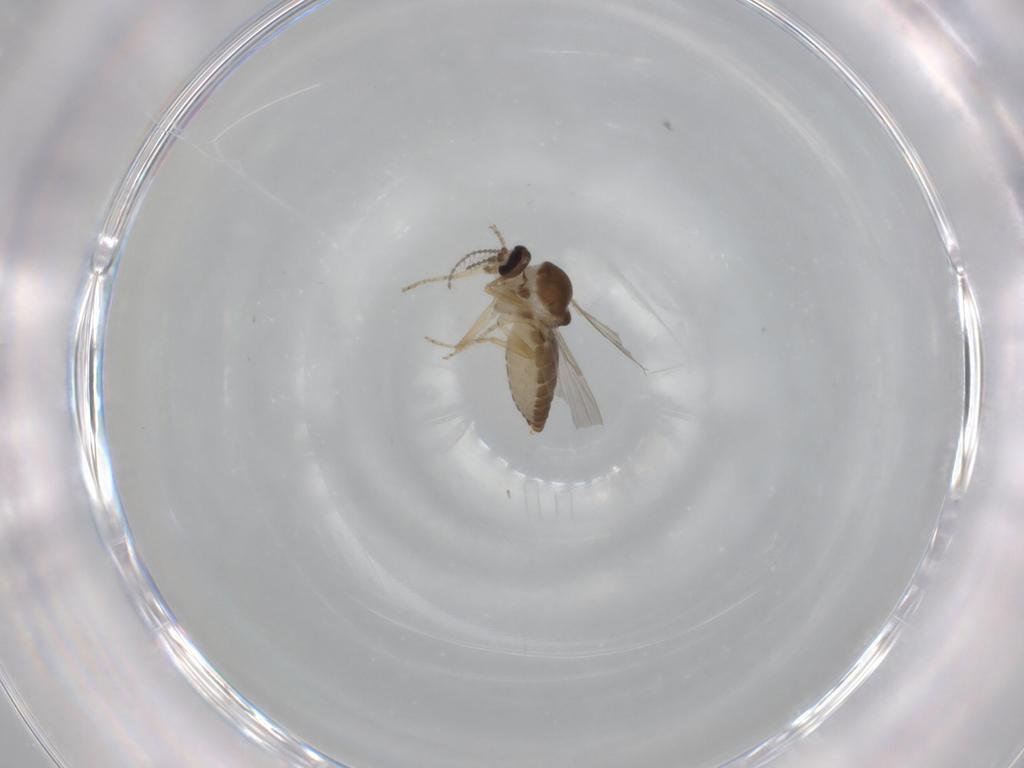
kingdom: Animalia
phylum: Arthropoda
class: Insecta
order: Diptera
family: Ceratopogonidae
